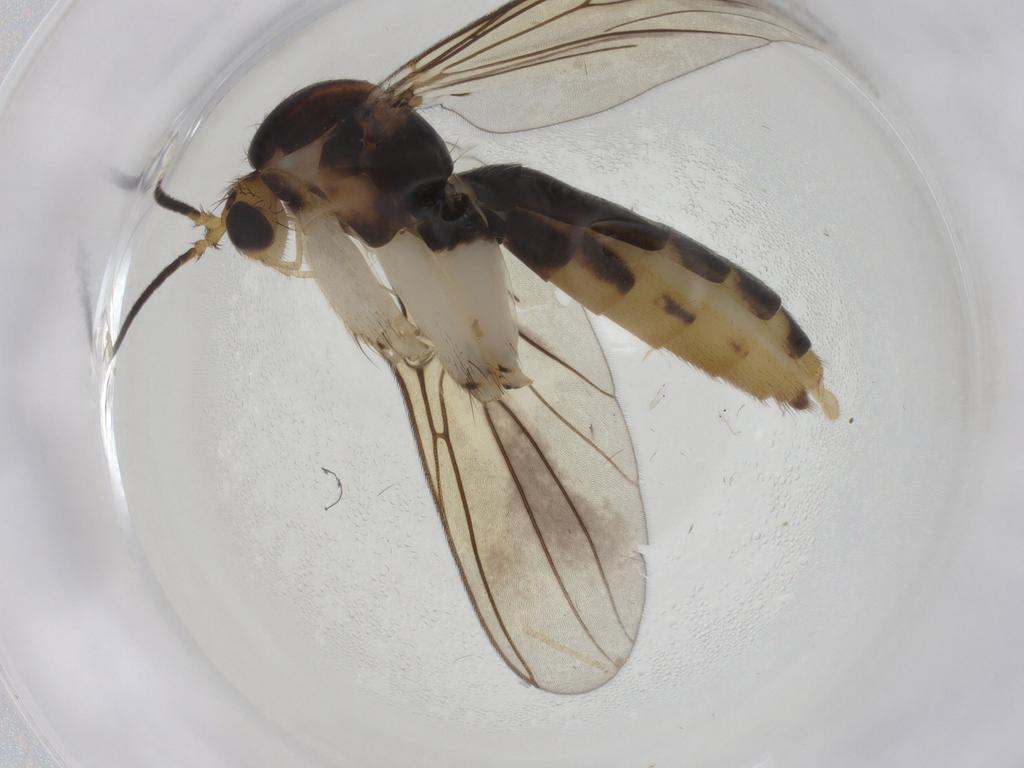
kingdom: Animalia
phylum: Arthropoda
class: Insecta
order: Diptera
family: Mycetophilidae
